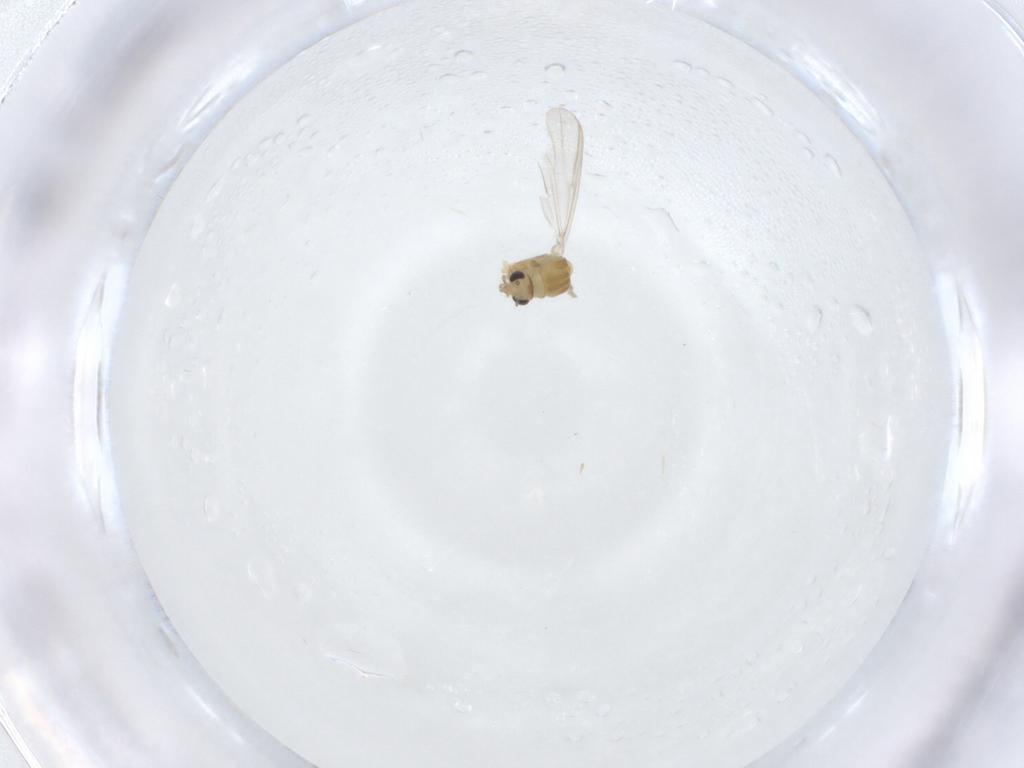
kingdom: Animalia
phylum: Arthropoda
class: Insecta
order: Diptera
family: Chironomidae
